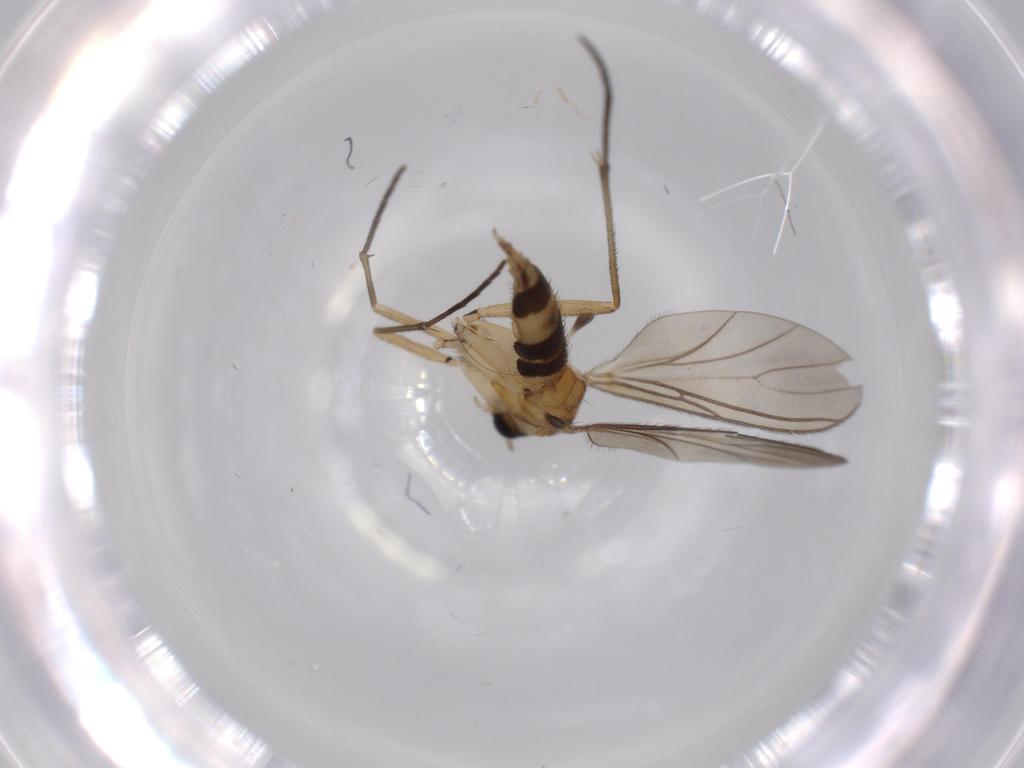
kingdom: Animalia
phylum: Arthropoda
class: Insecta
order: Diptera
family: Sciaridae
